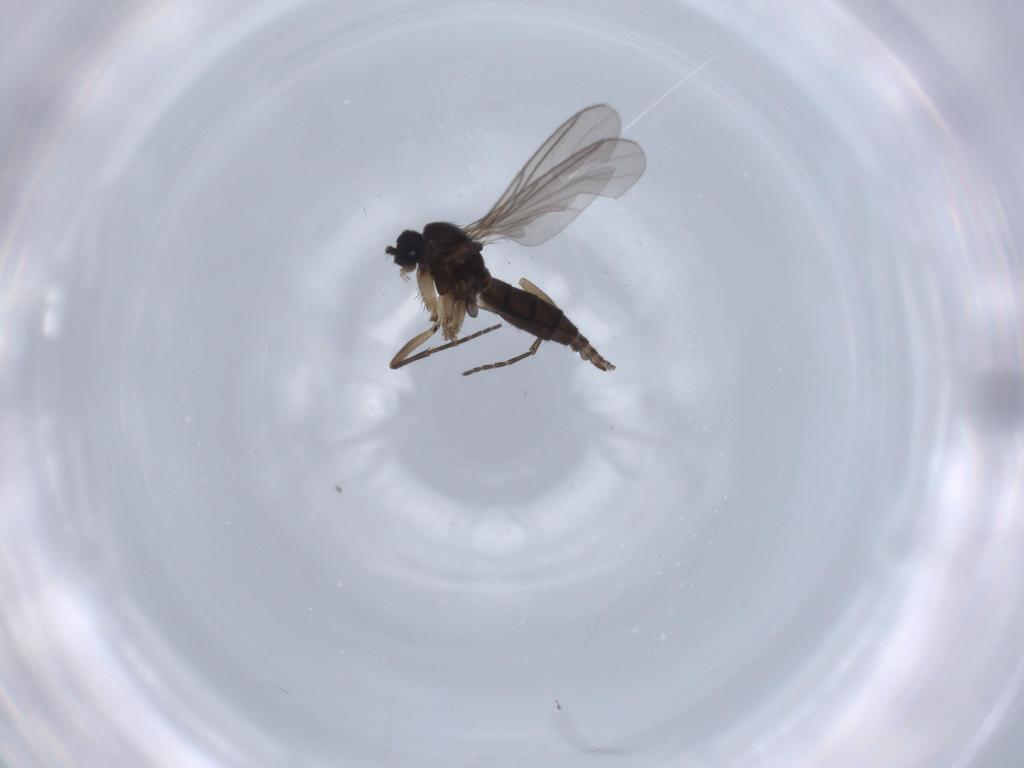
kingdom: Animalia
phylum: Arthropoda
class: Insecta
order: Diptera
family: Sciaridae
